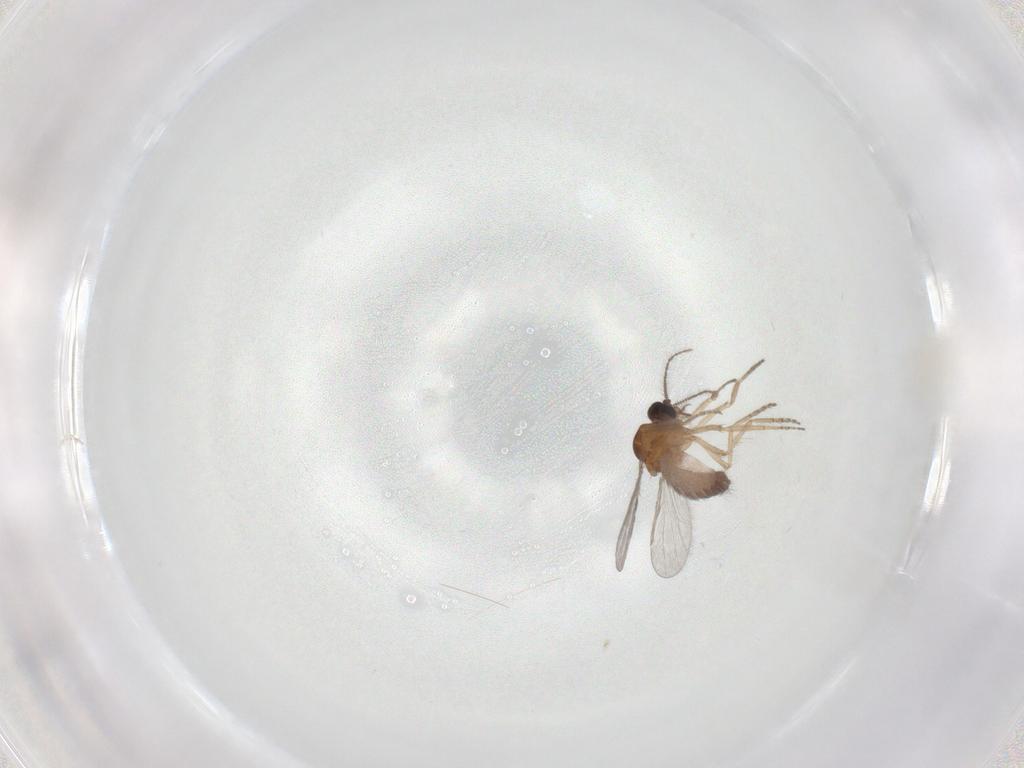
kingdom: Animalia
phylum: Arthropoda
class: Insecta
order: Diptera
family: Ceratopogonidae
